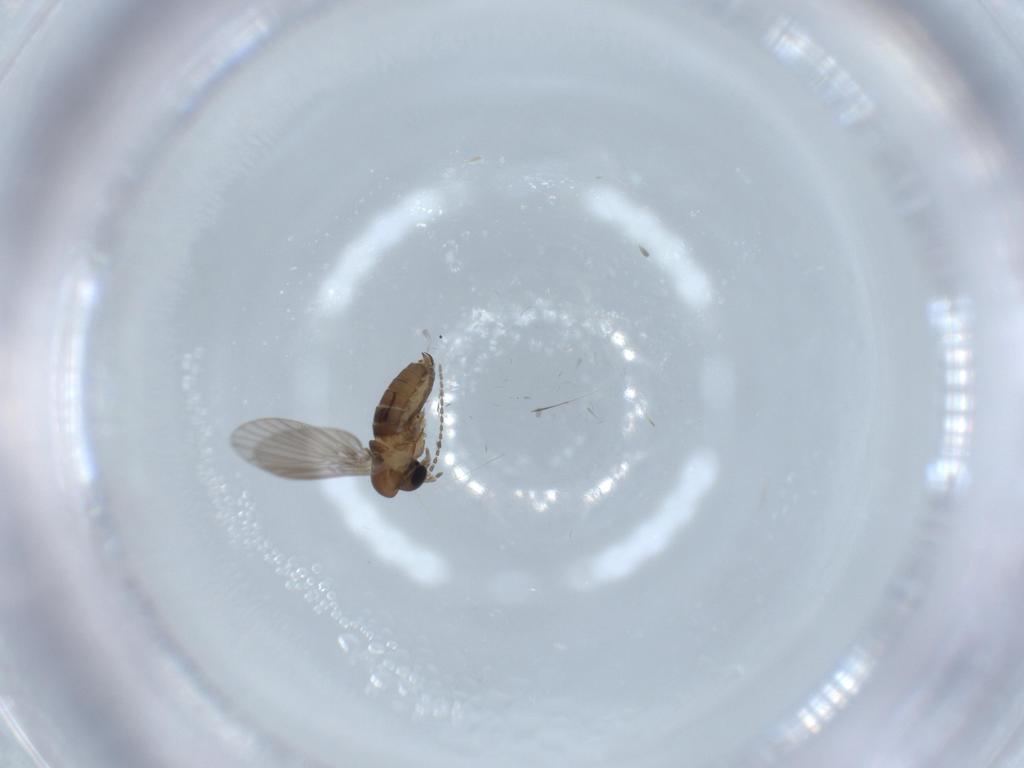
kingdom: Animalia
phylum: Arthropoda
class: Insecta
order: Diptera
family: Psychodidae
